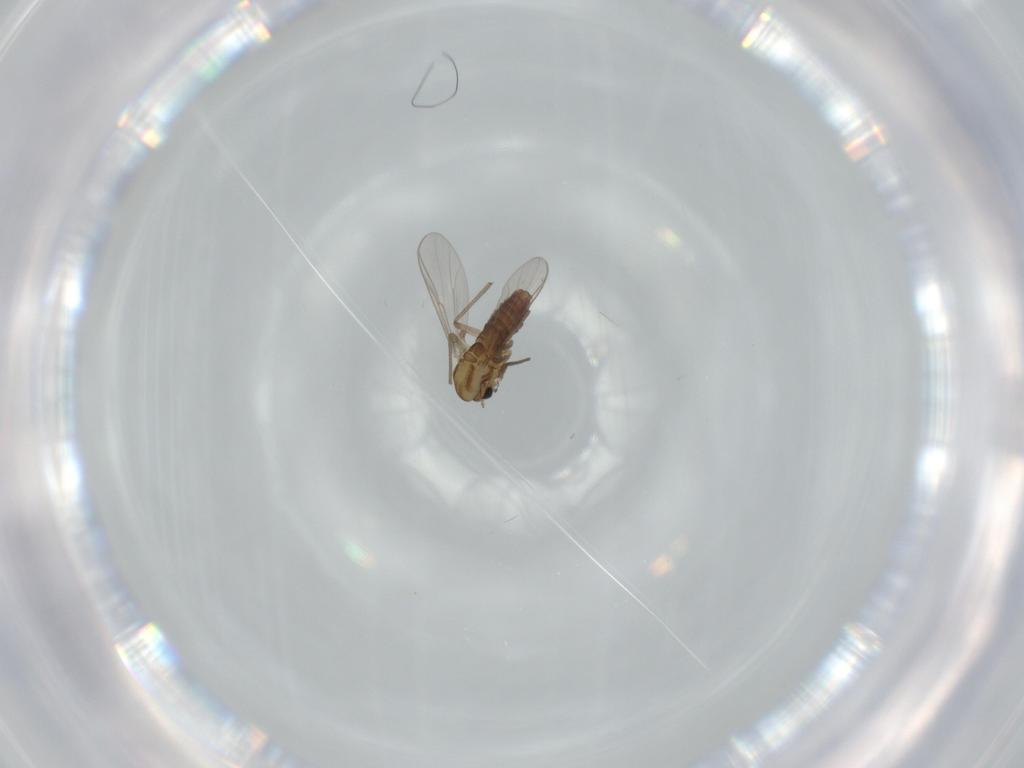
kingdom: Animalia
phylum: Arthropoda
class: Insecta
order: Diptera
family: Chironomidae
